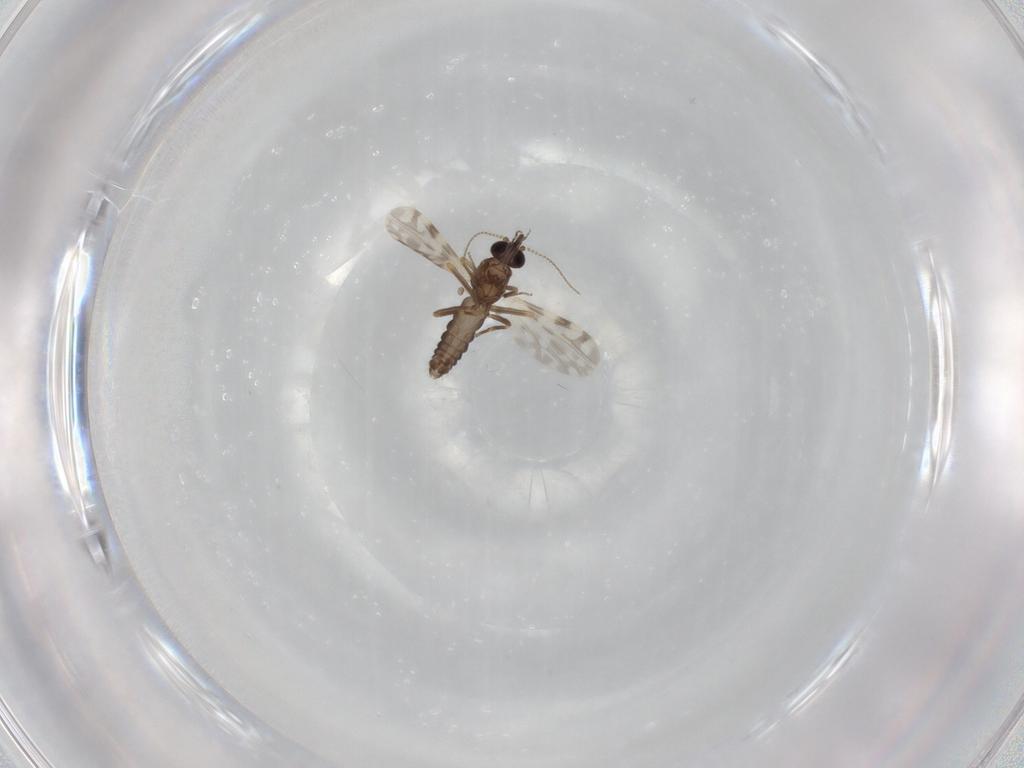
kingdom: Animalia
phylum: Arthropoda
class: Insecta
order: Diptera
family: Ceratopogonidae
